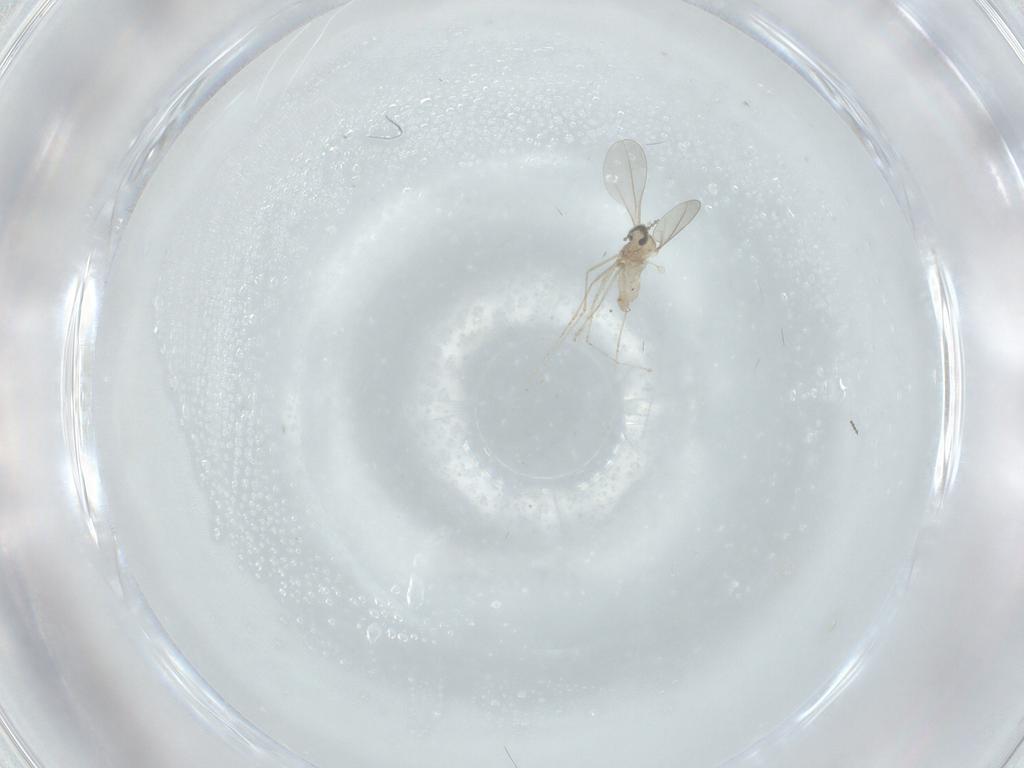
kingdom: Animalia
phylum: Arthropoda
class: Insecta
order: Diptera
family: Cecidomyiidae
